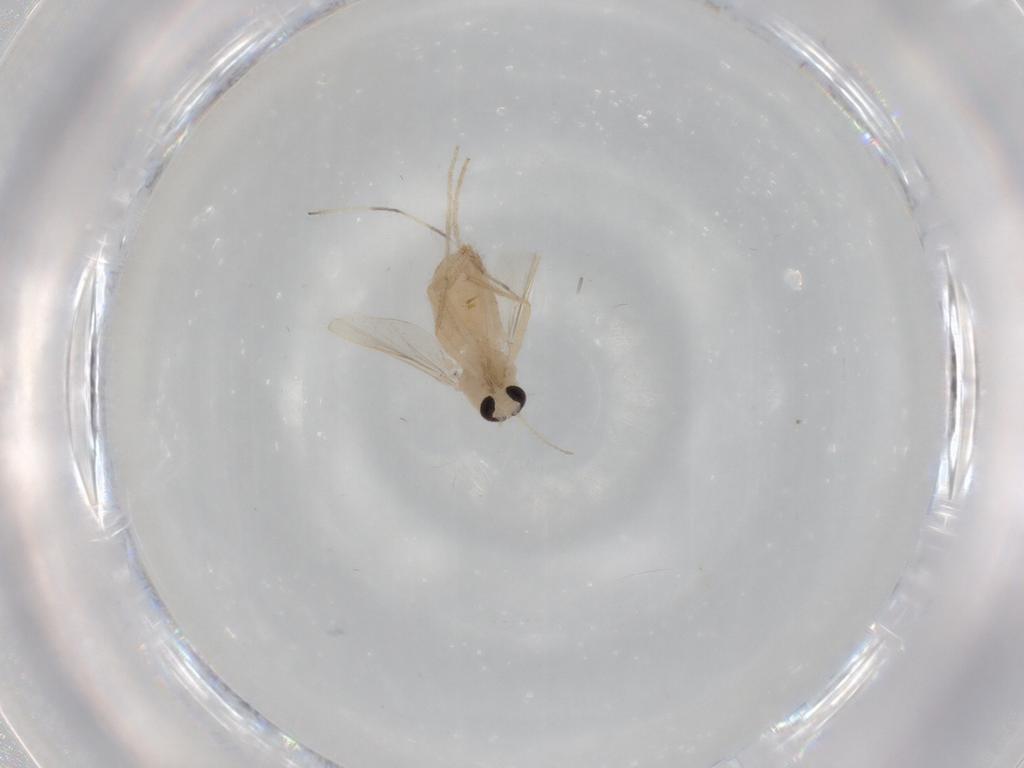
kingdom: Animalia
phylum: Arthropoda
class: Insecta
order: Diptera
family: Chironomidae
